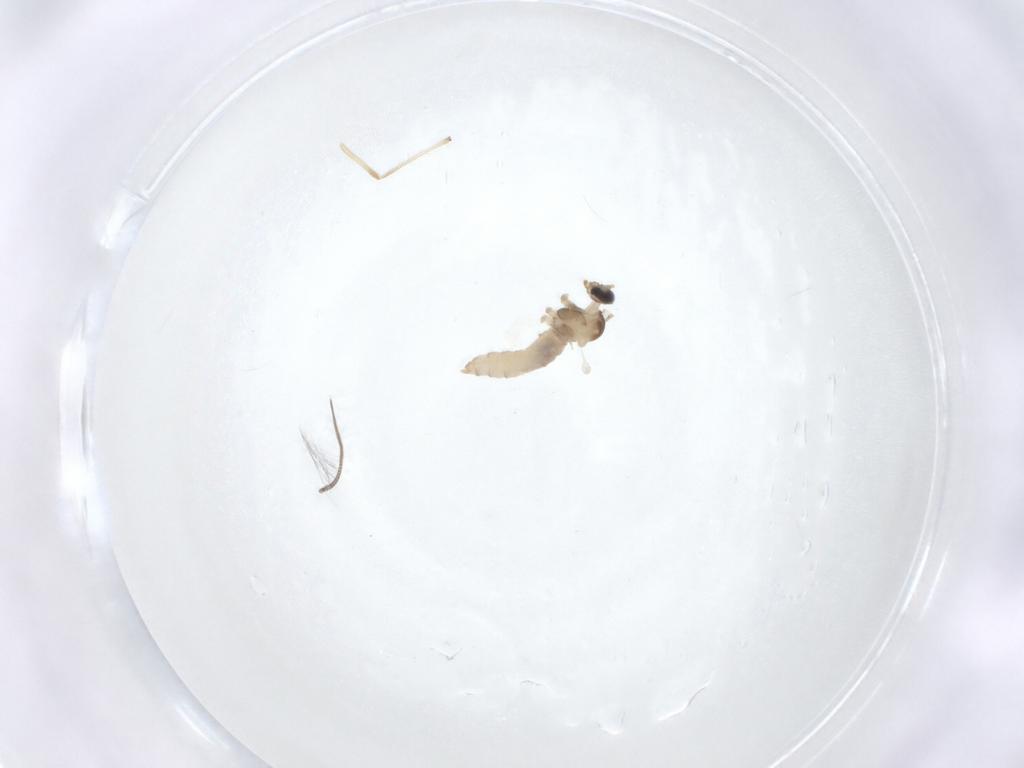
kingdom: Animalia
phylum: Arthropoda
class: Insecta
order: Diptera
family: Chironomidae
